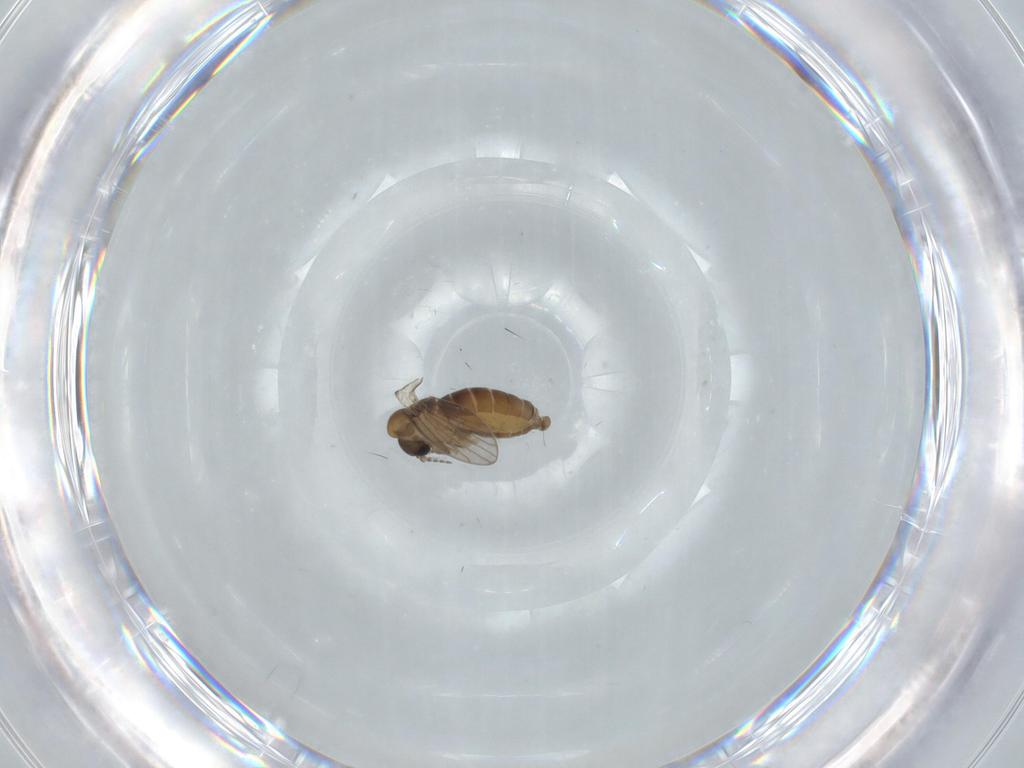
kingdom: Animalia
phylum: Arthropoda
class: Insecta
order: Diptera
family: Psychodidae
